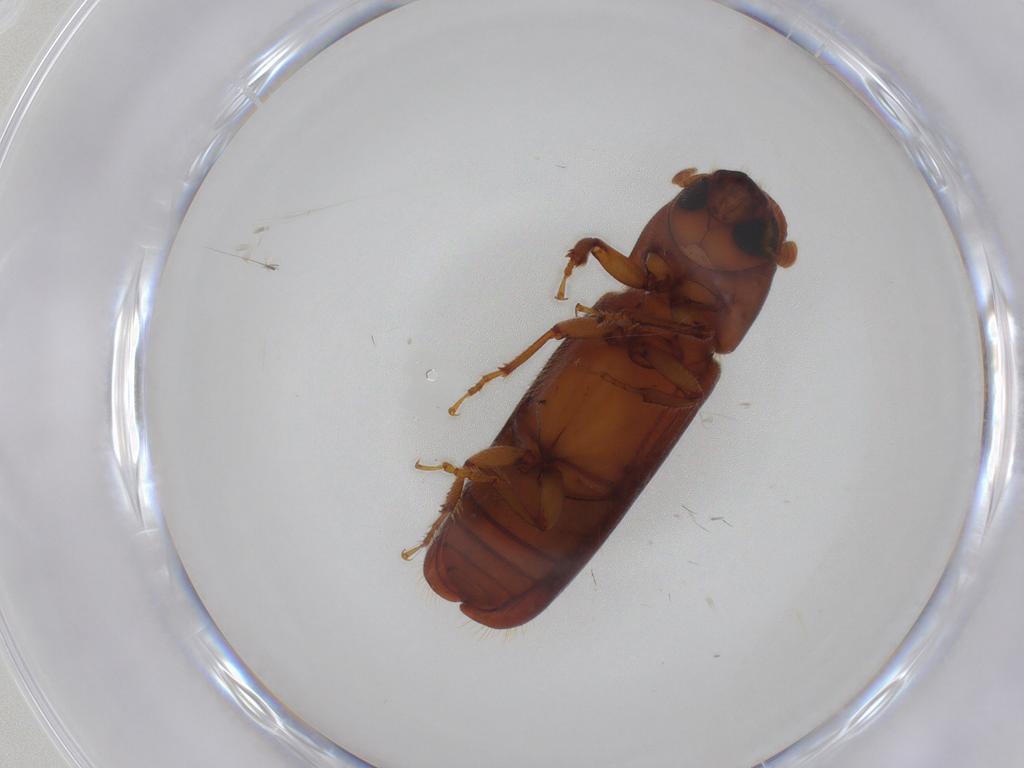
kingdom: Animalia
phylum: Arthropoda
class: Insecta
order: Coleoptera
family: Curculionidae
